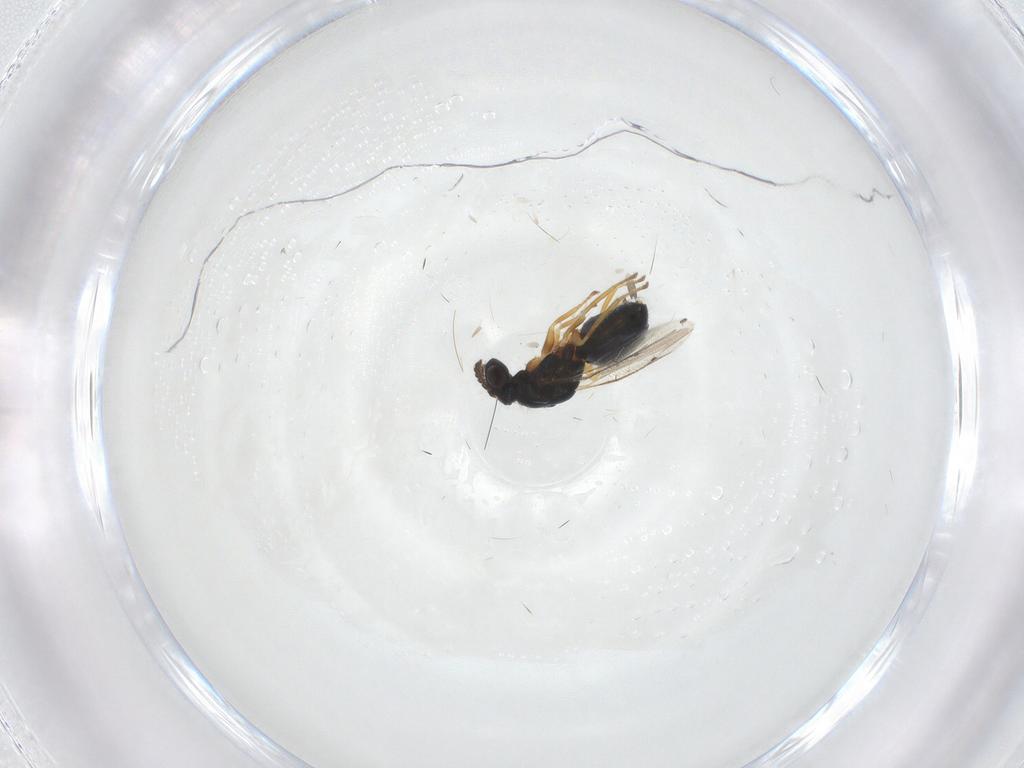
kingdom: Animalia
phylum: Arthropoda
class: Insecta
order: Hymenoptera
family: Eulophidae
